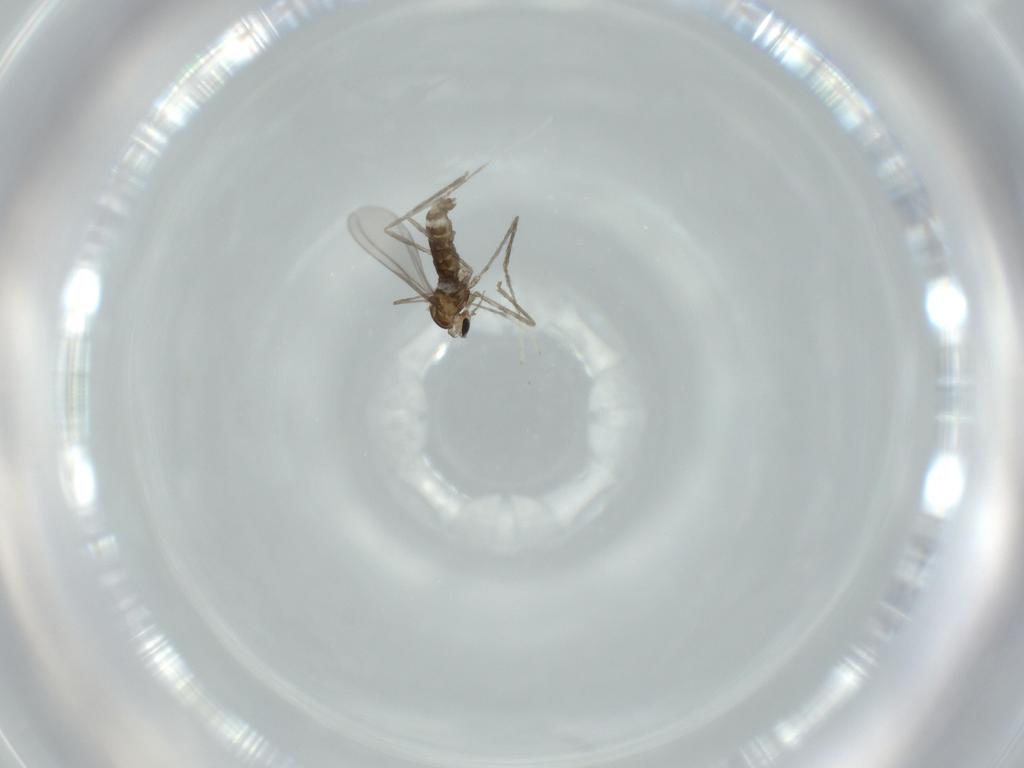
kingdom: Animalia
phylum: Arthropoda
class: Insecta
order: Diptera
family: Cecidomyiidae
